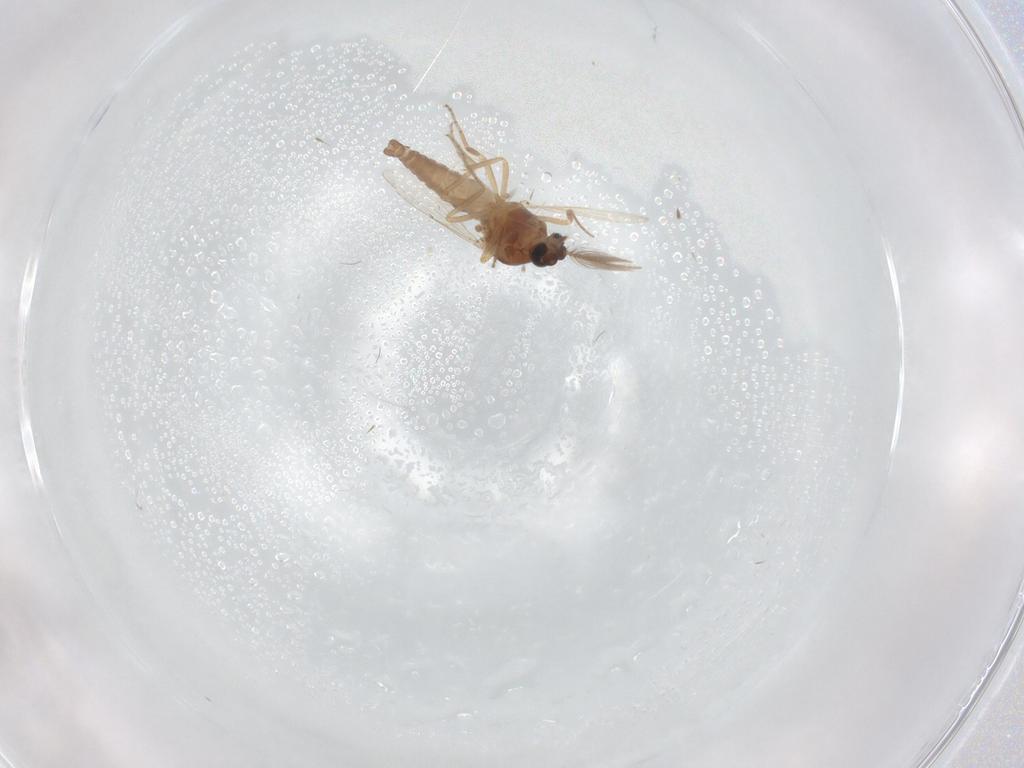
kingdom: Animalia
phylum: Arthropoda
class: Insecta
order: Diptera
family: Ceratopogonidae
